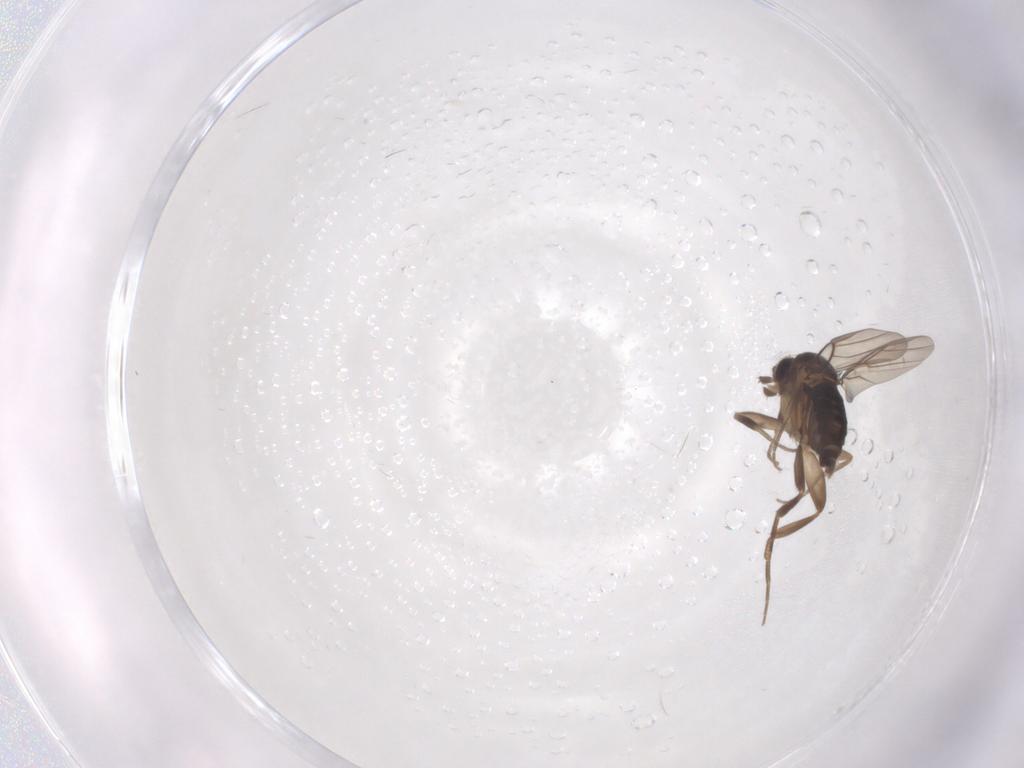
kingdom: Animalia
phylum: Arthropoda
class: Insecta
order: Diptera
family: Phoridae
